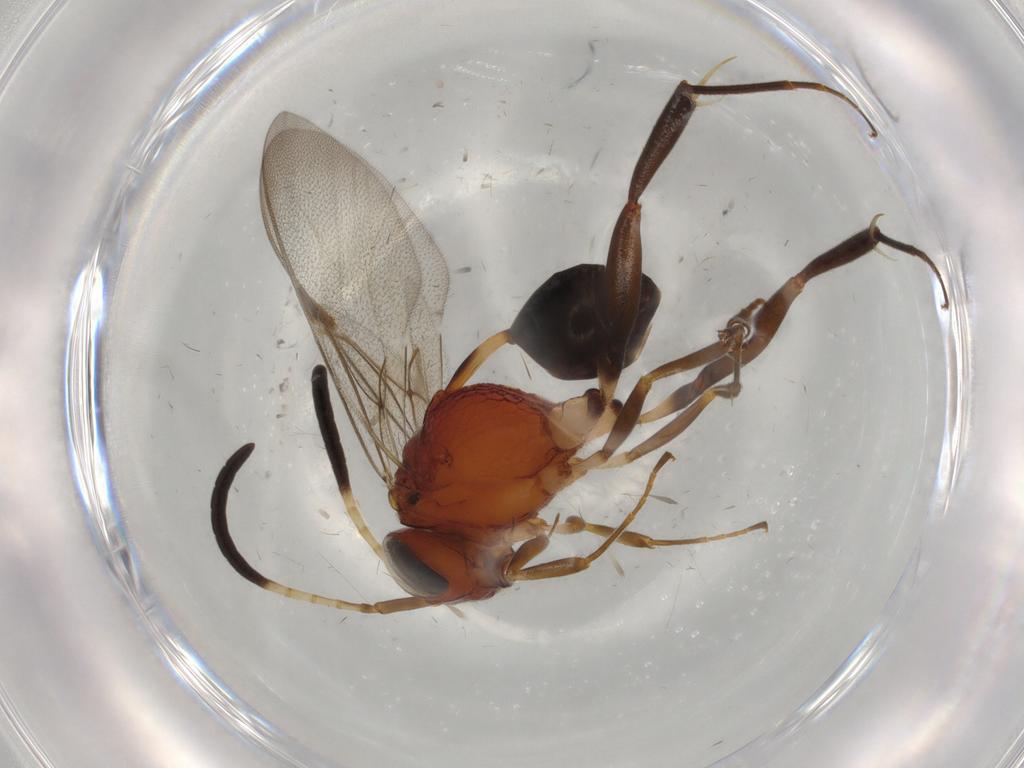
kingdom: Animalia
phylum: Arthropoda
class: Insecta
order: Hymenoptera
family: Evaniidae
